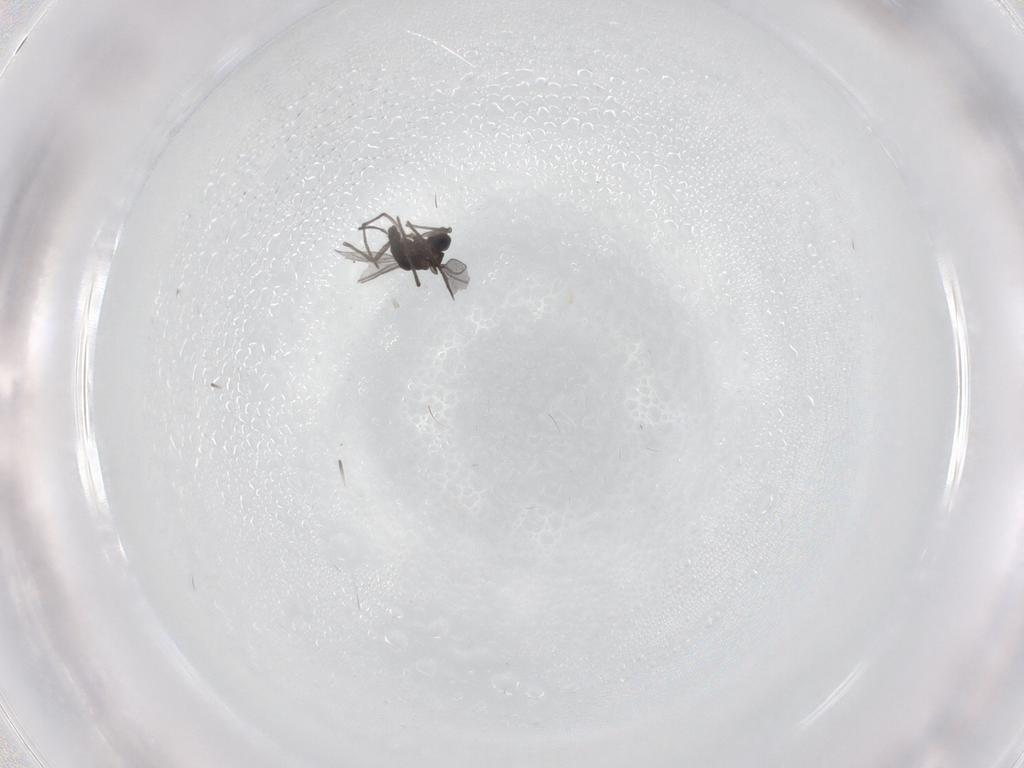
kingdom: Animalia
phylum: Arthropoda
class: Insecta
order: Diptera
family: Tabanidae
